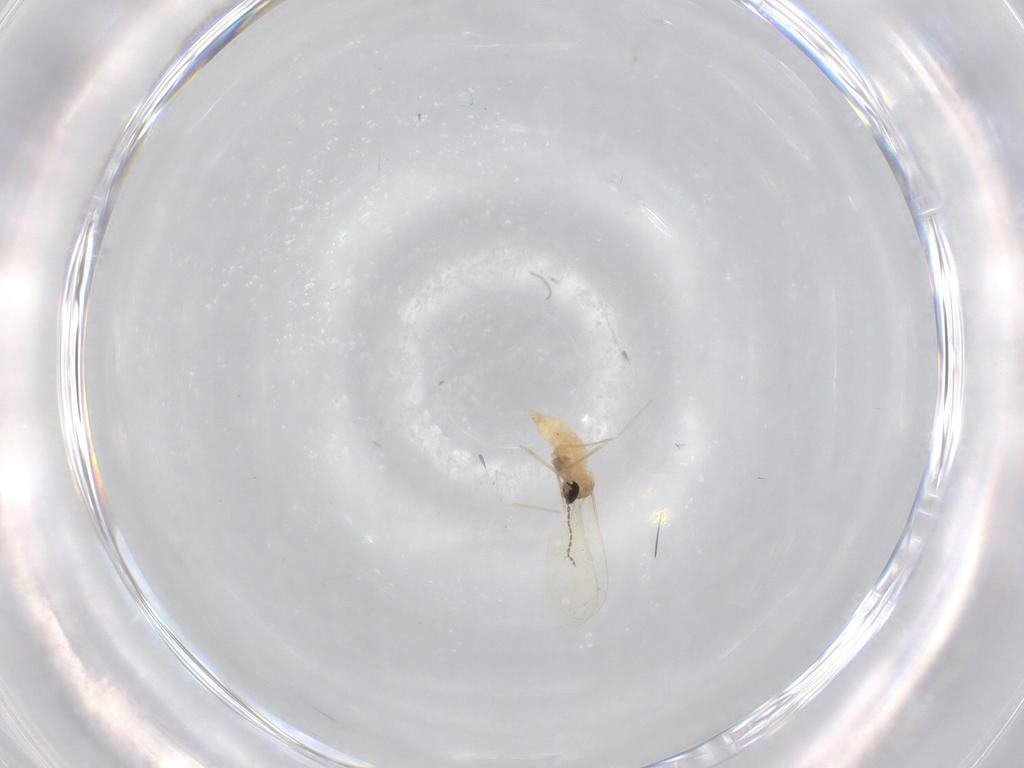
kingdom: Animalia
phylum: Arthropoda
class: Insecta
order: Diptera
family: Cecidomyiidae
